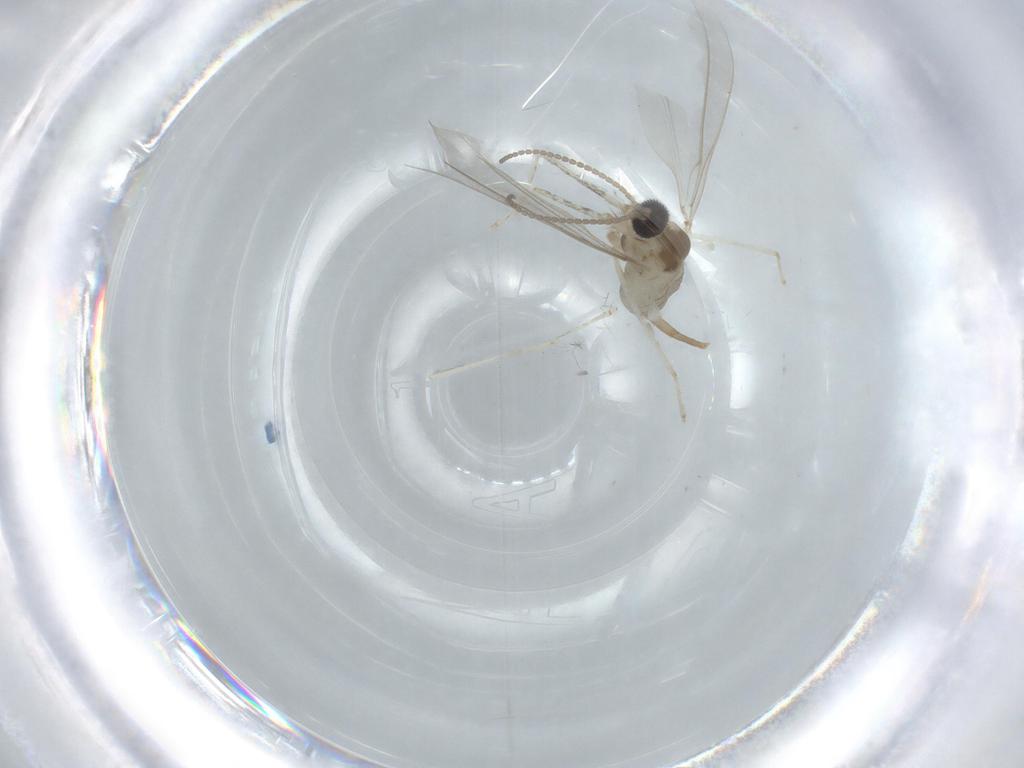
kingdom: Animalia
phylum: Arthropoda
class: Insecta
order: Diptera
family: Cecidomyiidae
